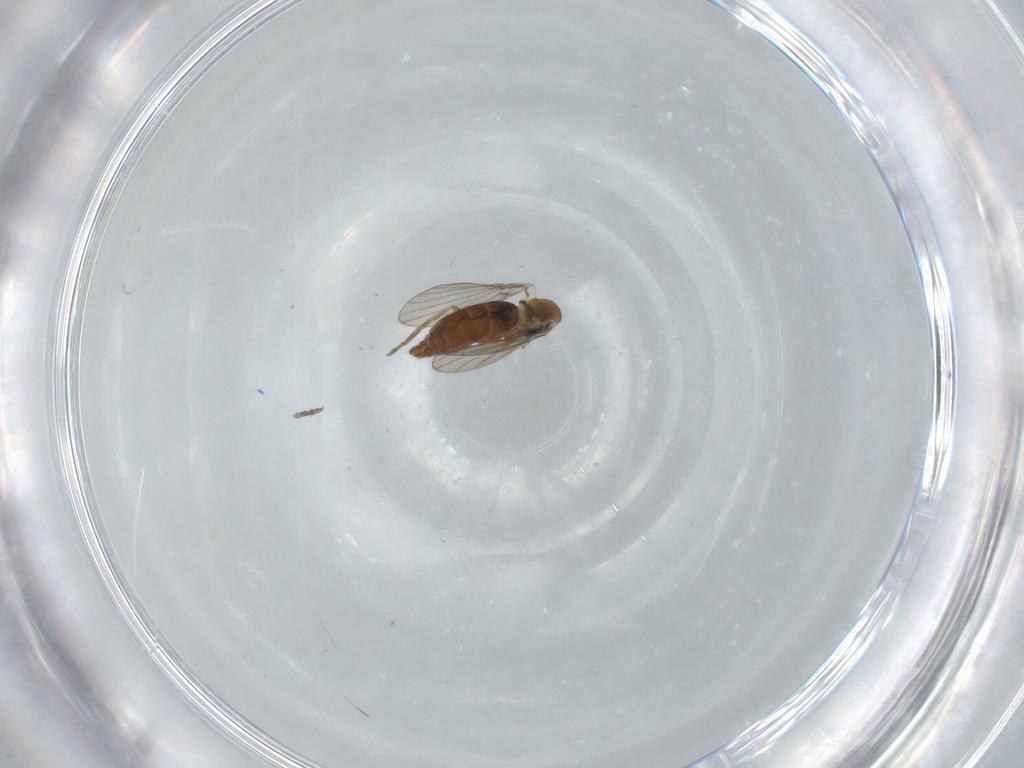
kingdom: Animalia
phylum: Arthropoda
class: Insecta
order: Diptera
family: Psychodidae
